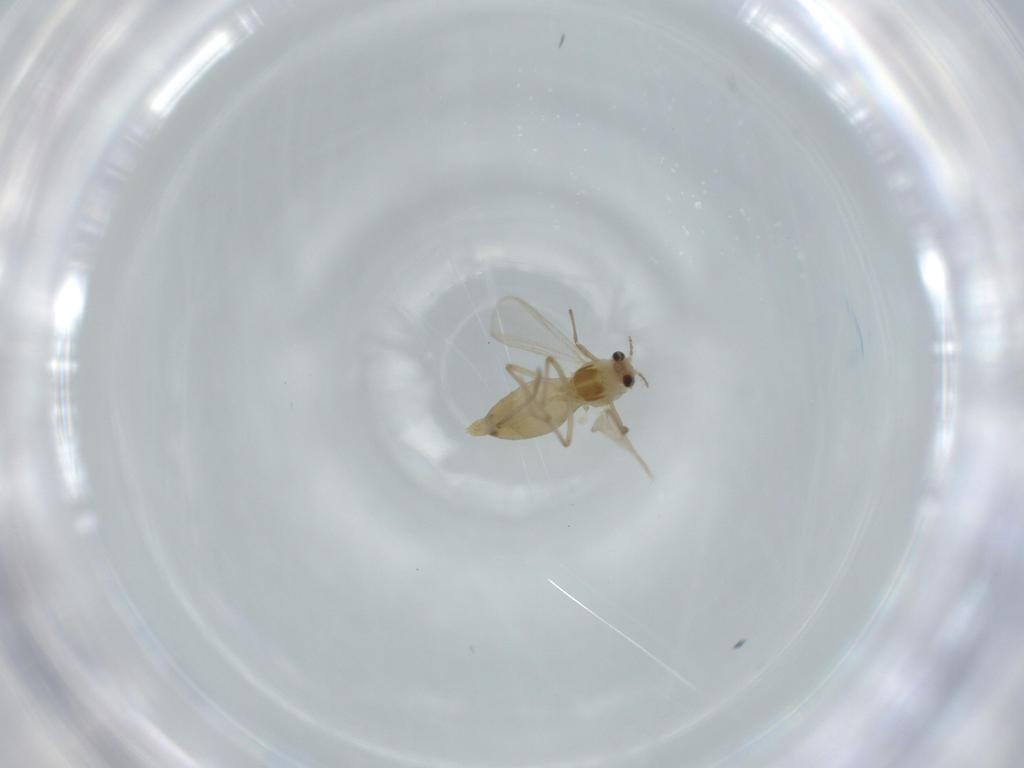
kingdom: Animalia
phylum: Arthropoda
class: Insecta
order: Diptera
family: Chironomidae
